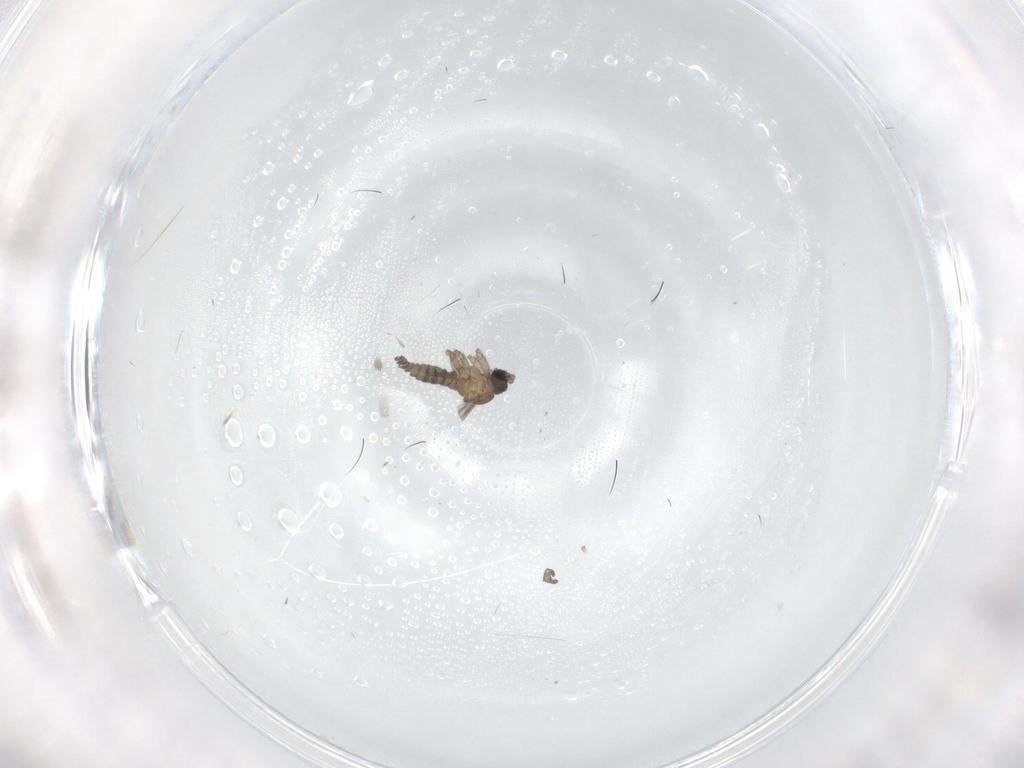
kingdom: Animalia
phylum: Arthropoda
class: Insecta
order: Diptera
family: Sciaridae
